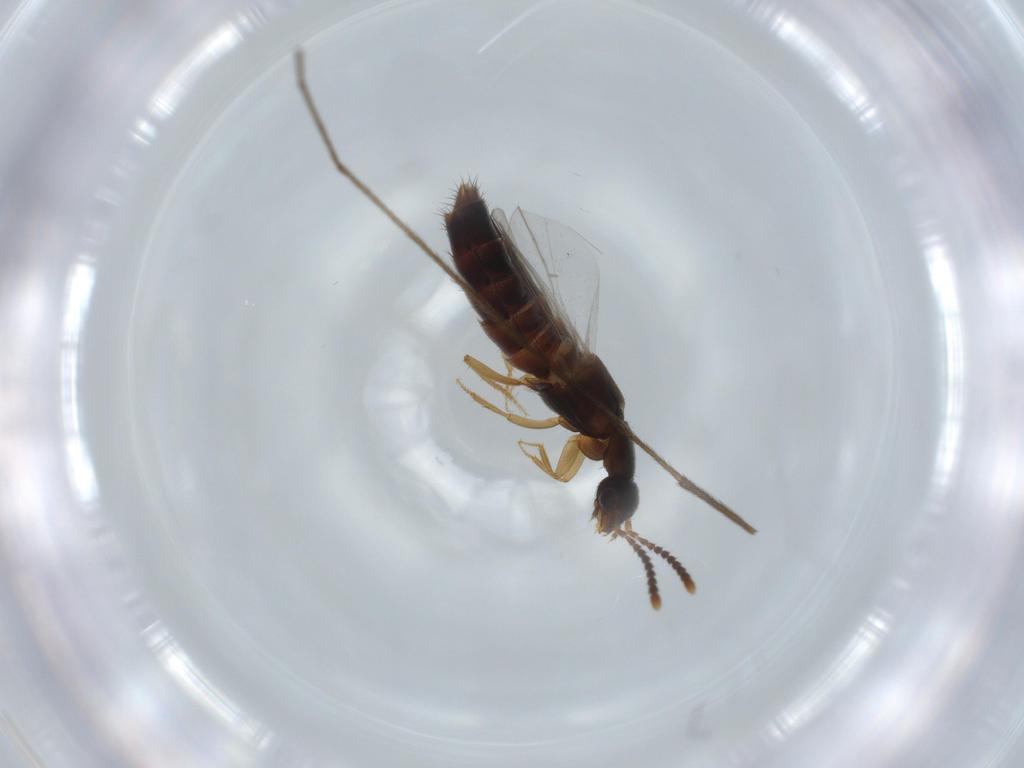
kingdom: Animalia
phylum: Arthropoda
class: Insecta
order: Coleoptera
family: Staphylinidae
